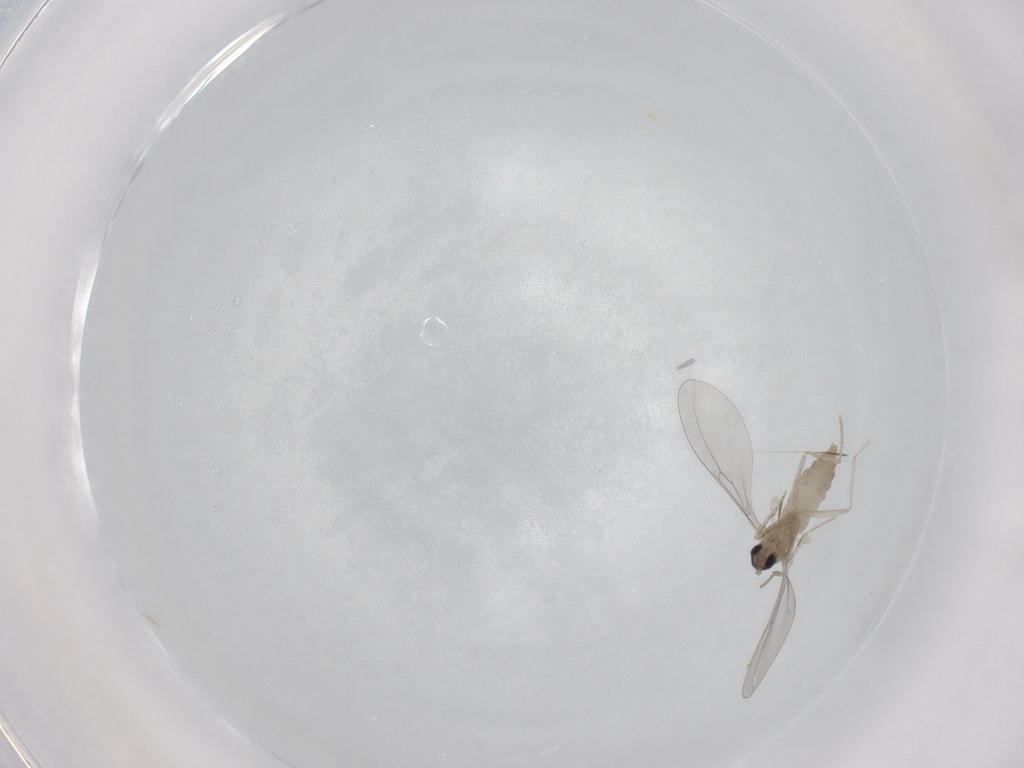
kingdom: Animalia
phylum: Arthropoda
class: Insecta
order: Diptera
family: Cecidomyiidae
